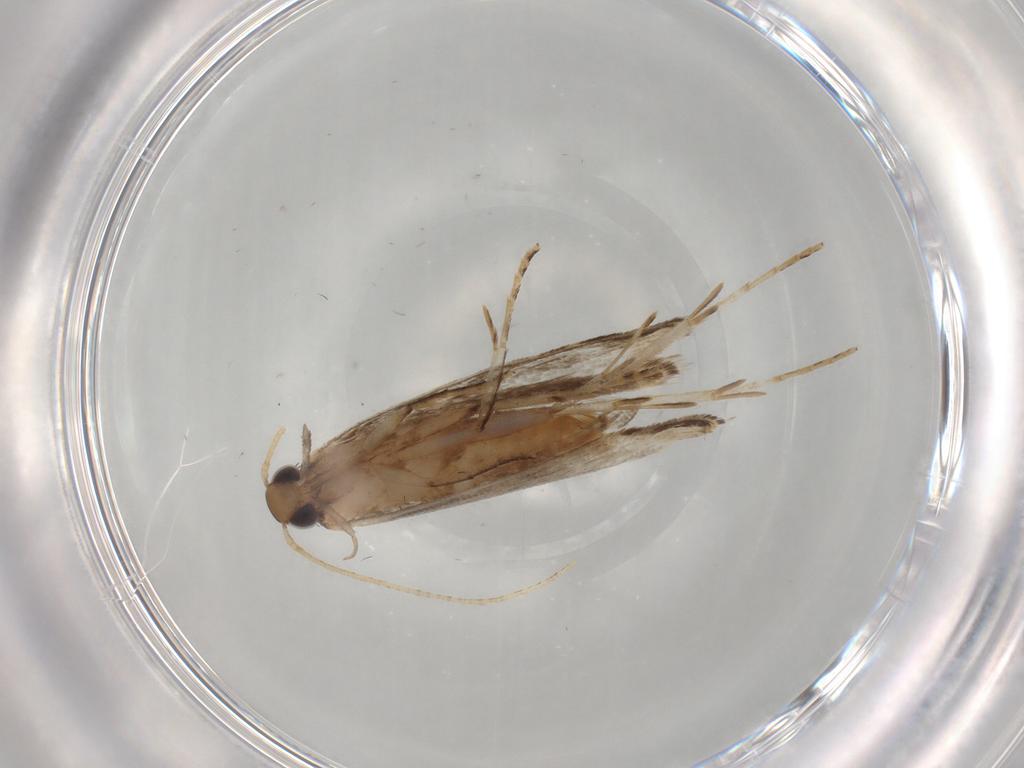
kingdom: Animalia
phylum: Arthropoda
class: Insecta
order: Lepidoptera
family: Gelechiidae
